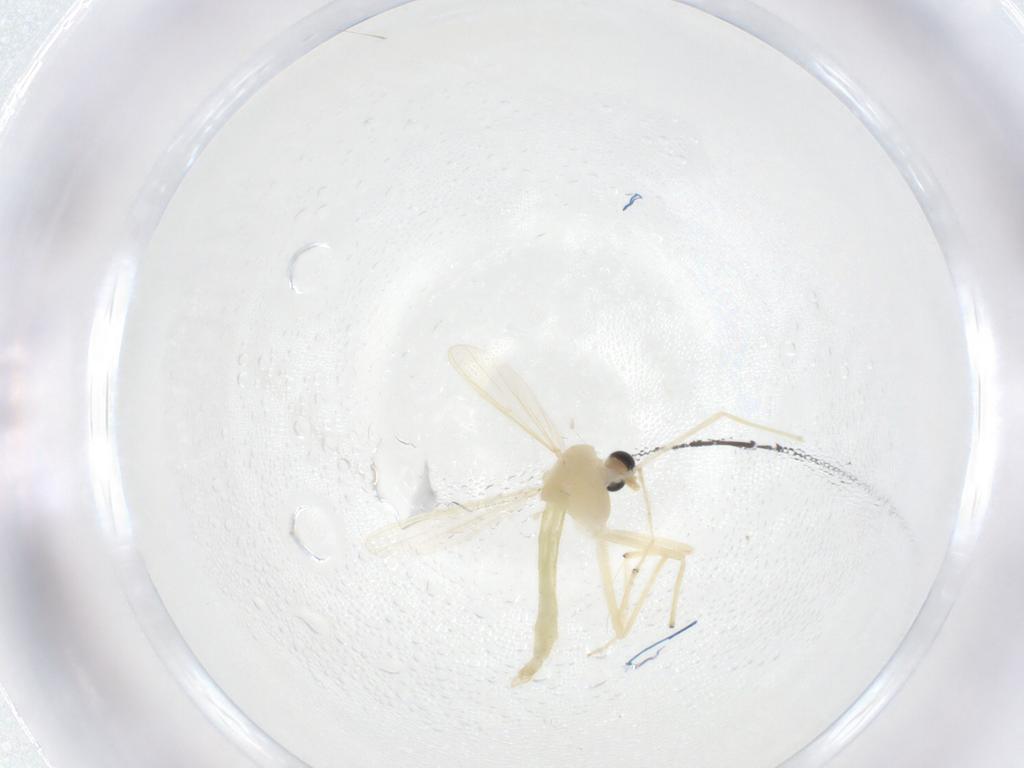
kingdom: Animalia
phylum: Arthropoda
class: Insecta
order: Diptera
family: Chironomidae
